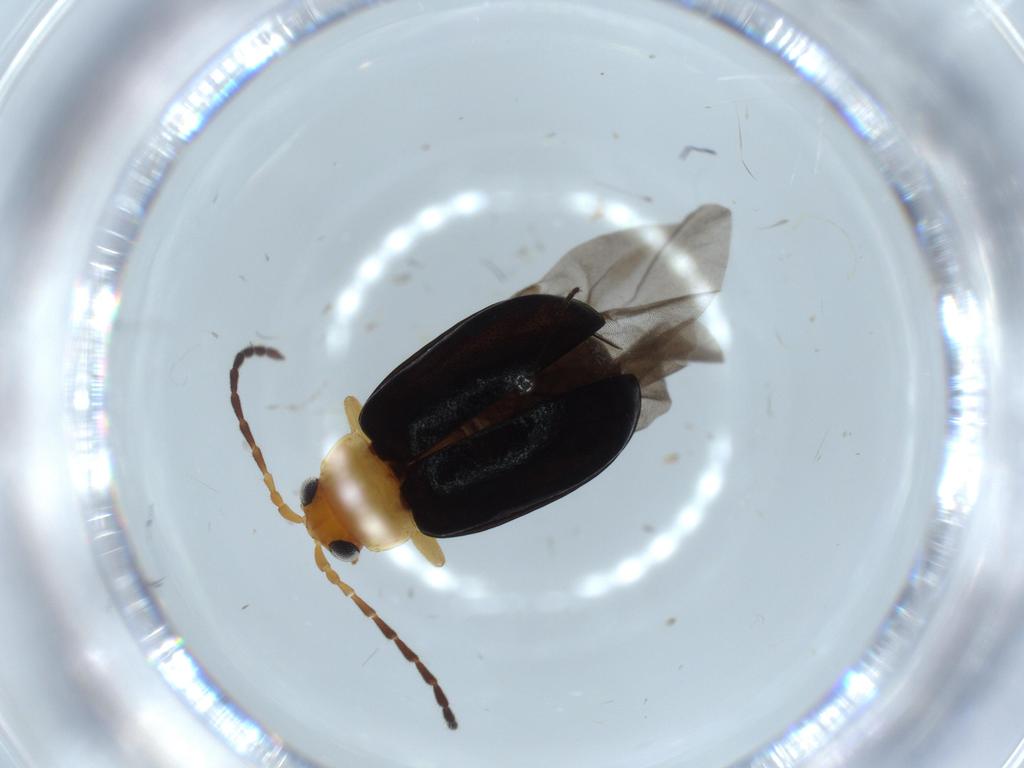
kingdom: Animalia
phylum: Arthropoda
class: Insecta
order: Coleoptera
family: Chrysomelidae
